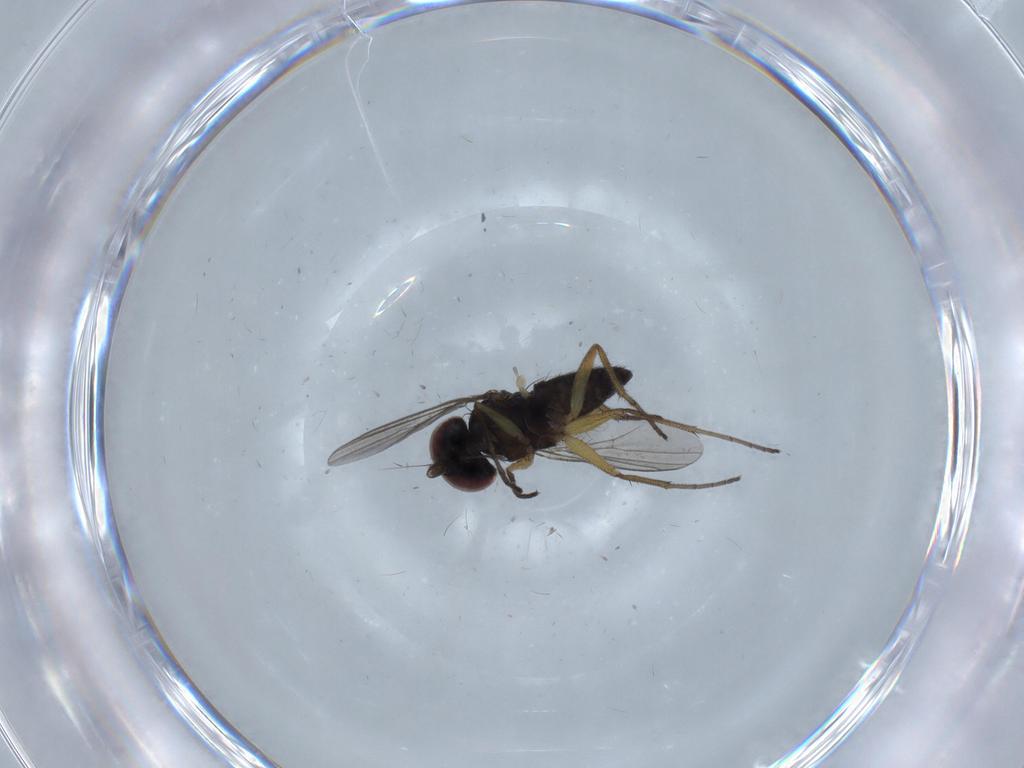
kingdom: Animalia
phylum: Arthropoda
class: Insecta
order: Diptera
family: Dolichopodidae
